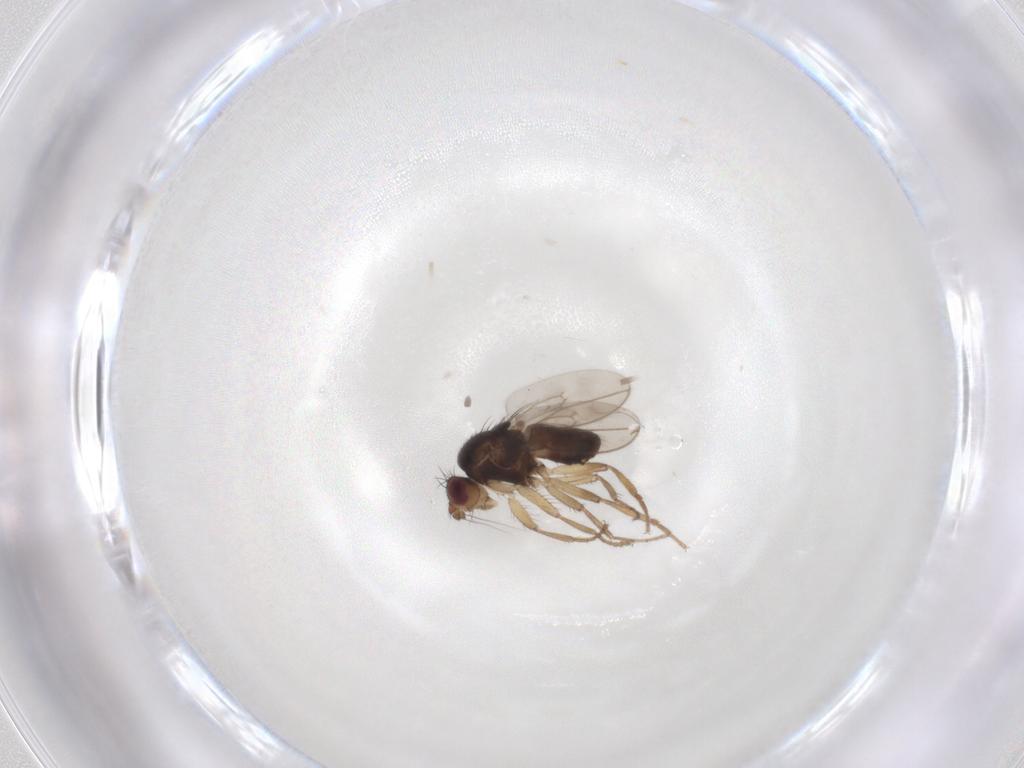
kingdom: Animalia
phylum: Arthropoda
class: Insecta
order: Diptera
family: Sphaeroceridae
